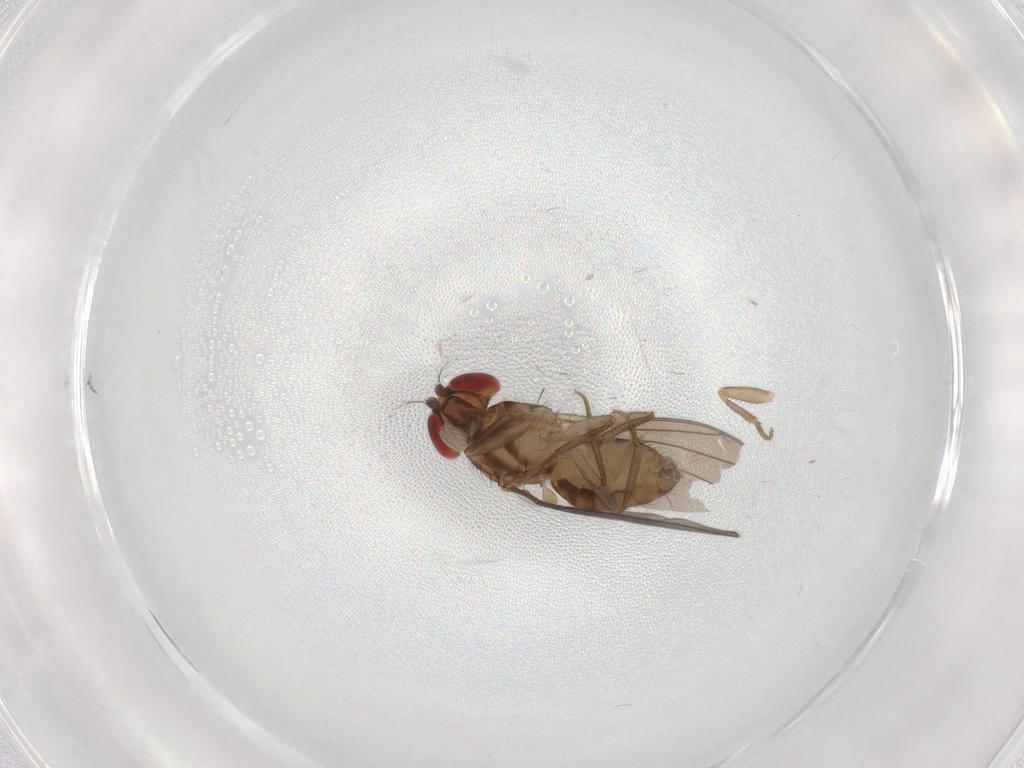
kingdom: Animalia
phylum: Arthropoda
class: Insecta
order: Diptera
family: Drosophilidae
